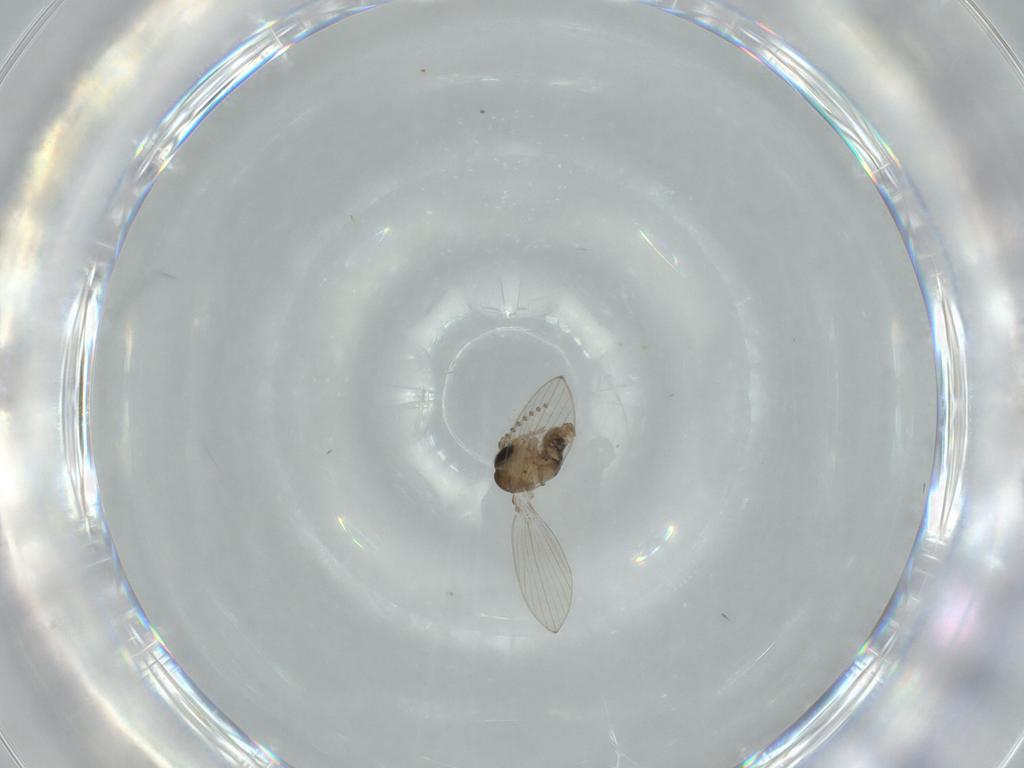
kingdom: Animalia
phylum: Arthropoda
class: Insecta
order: Diptera
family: Psychodidae
